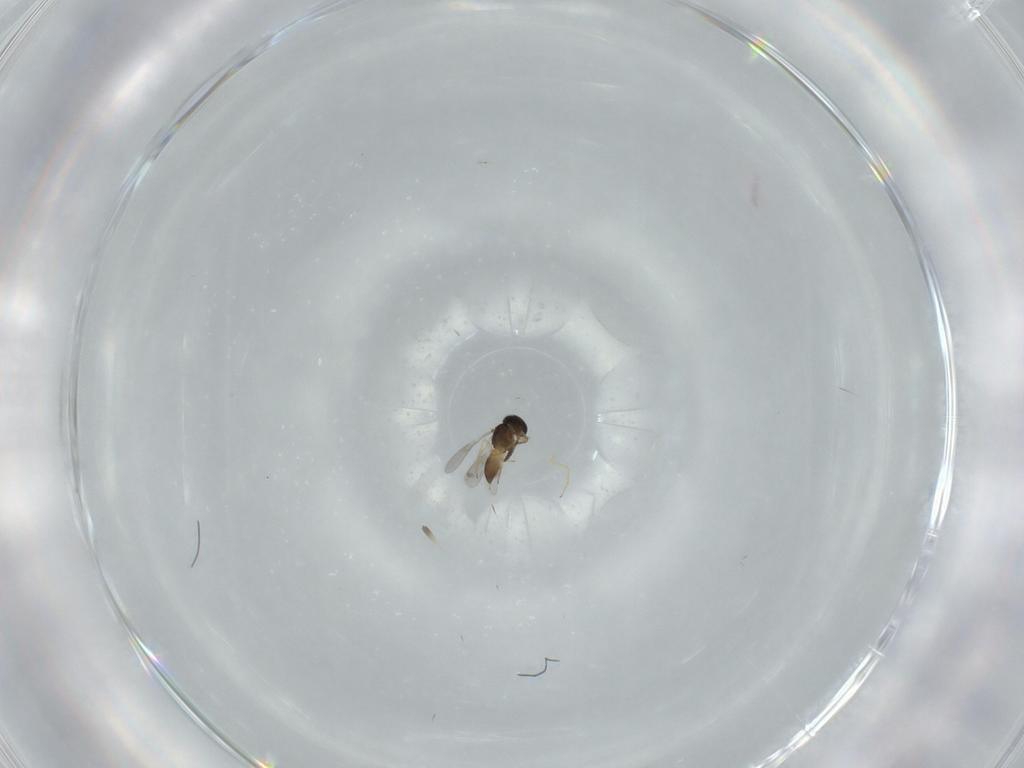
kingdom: Animalia
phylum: Arthropoda
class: Insecta
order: Hymenoptera
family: Scelionidae
